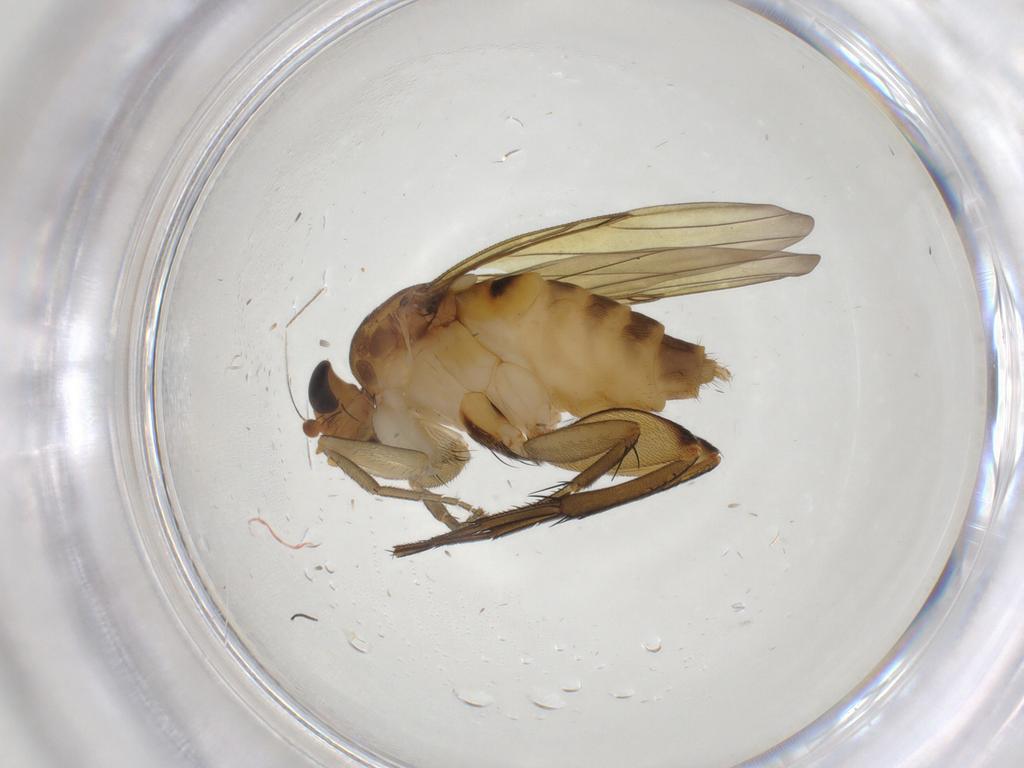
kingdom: Animalia
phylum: Arthropoda
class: Insecta
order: Diptera
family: Phoridae
